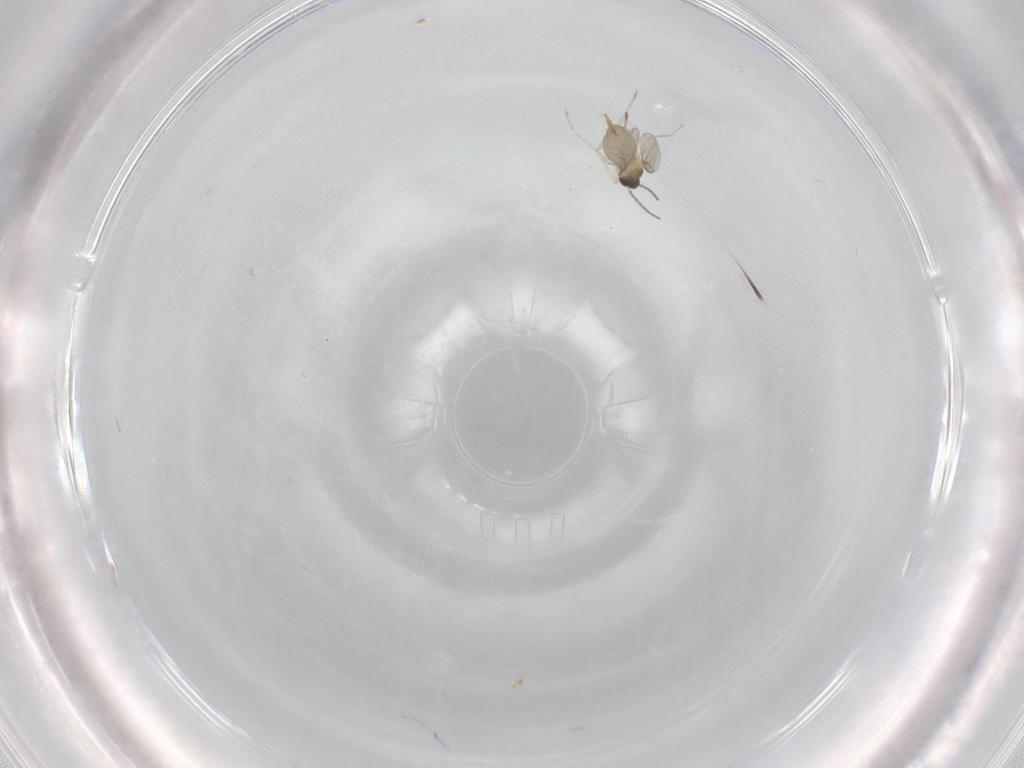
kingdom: Animalia
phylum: Arthropoda
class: Insecta
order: Diptera
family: Cecidomyiidae
